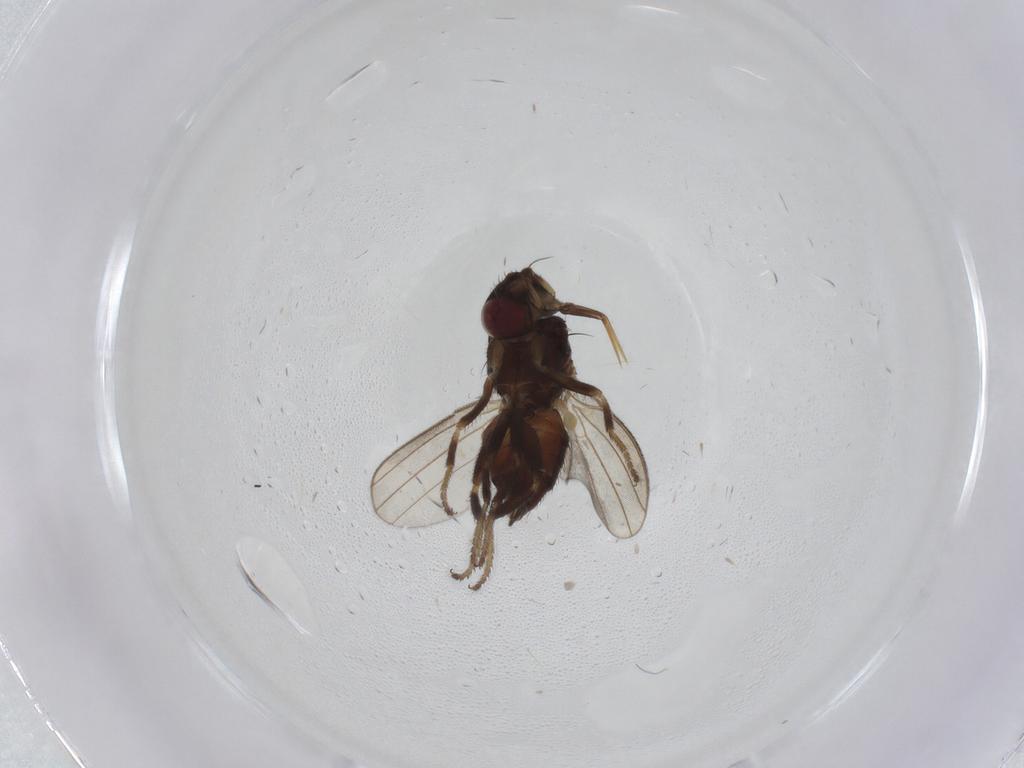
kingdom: Animalia
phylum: Arthropoda
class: Insecta
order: Diptera
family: Milichiidae
